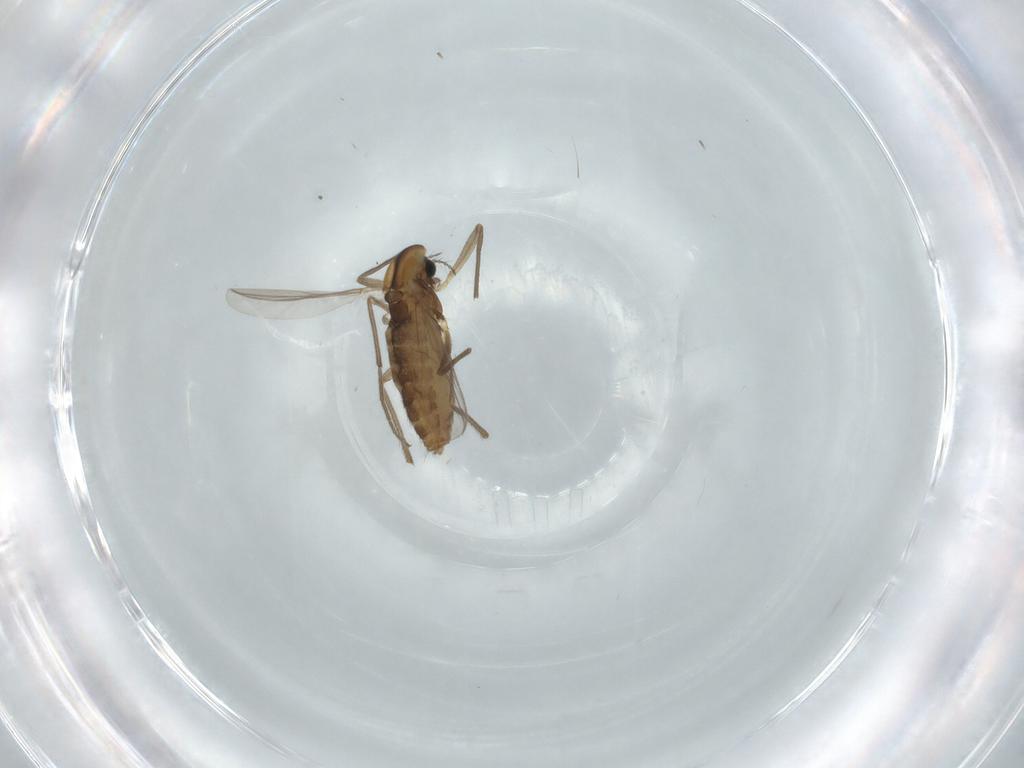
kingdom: Animalia
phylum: Arthropoda
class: Insecta
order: Diptera
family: Chironomidae
